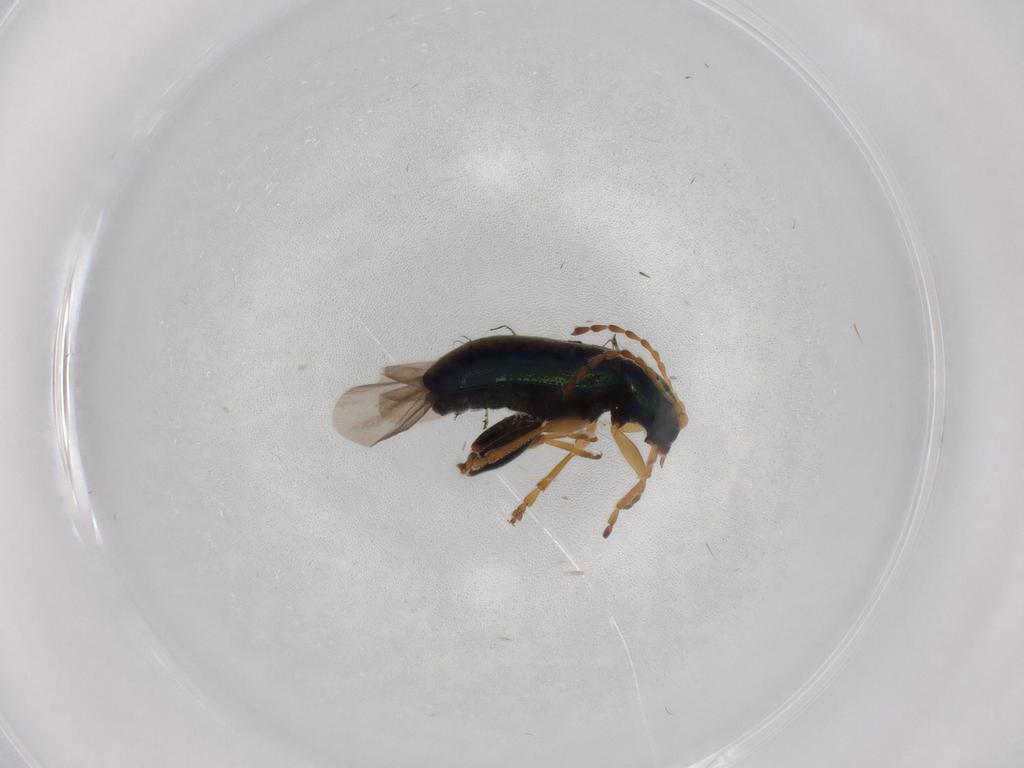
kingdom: Animalia
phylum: Arthropoda
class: Insecta
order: Coleoptera
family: Chrysomelidae
